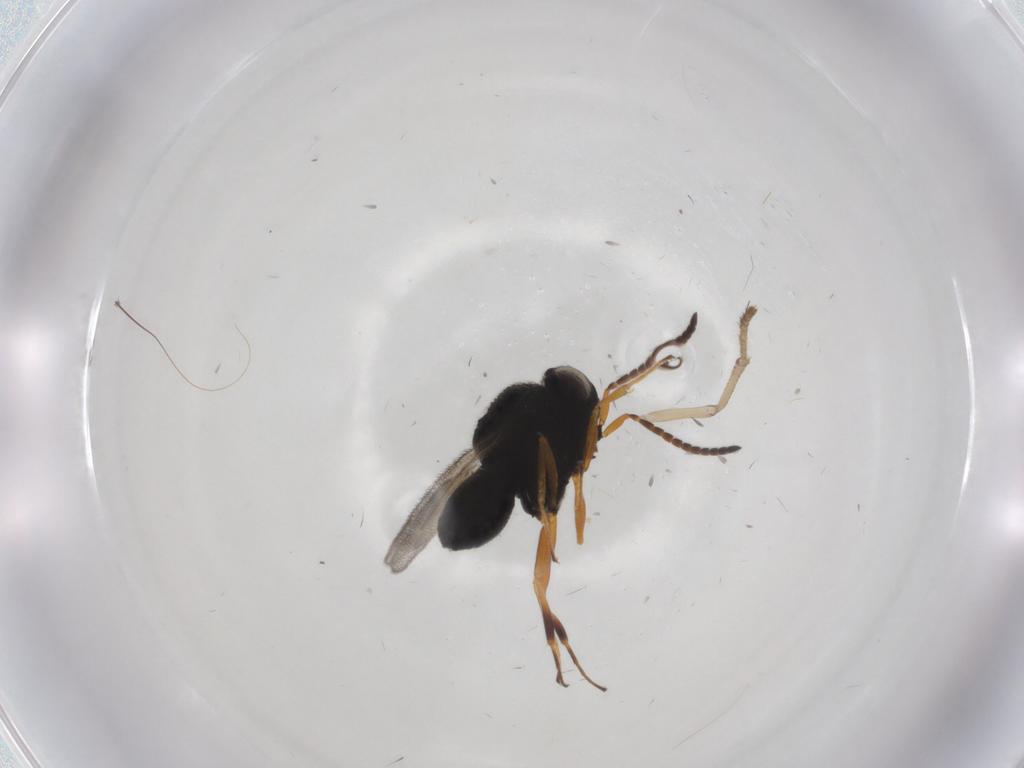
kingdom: Animalia
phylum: Arthropoda
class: Insecta
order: Hymenoptera
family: Scelionidae
